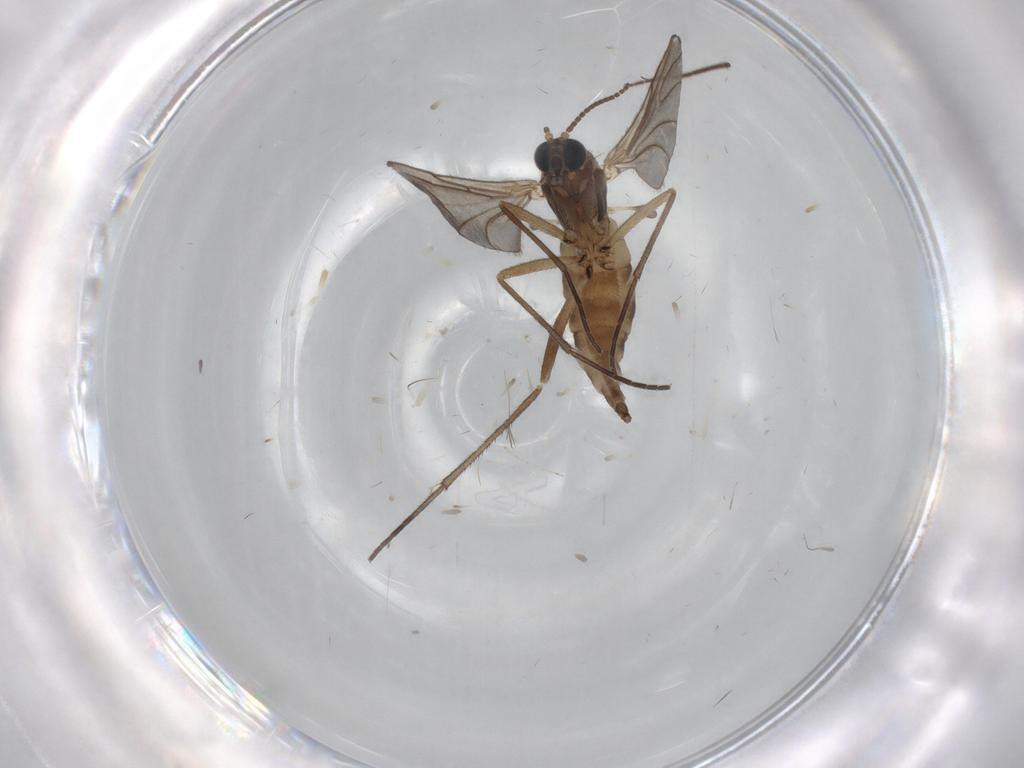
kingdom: Animalia
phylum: Arthropoda
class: Insecta
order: Diptera
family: Sciaridae
